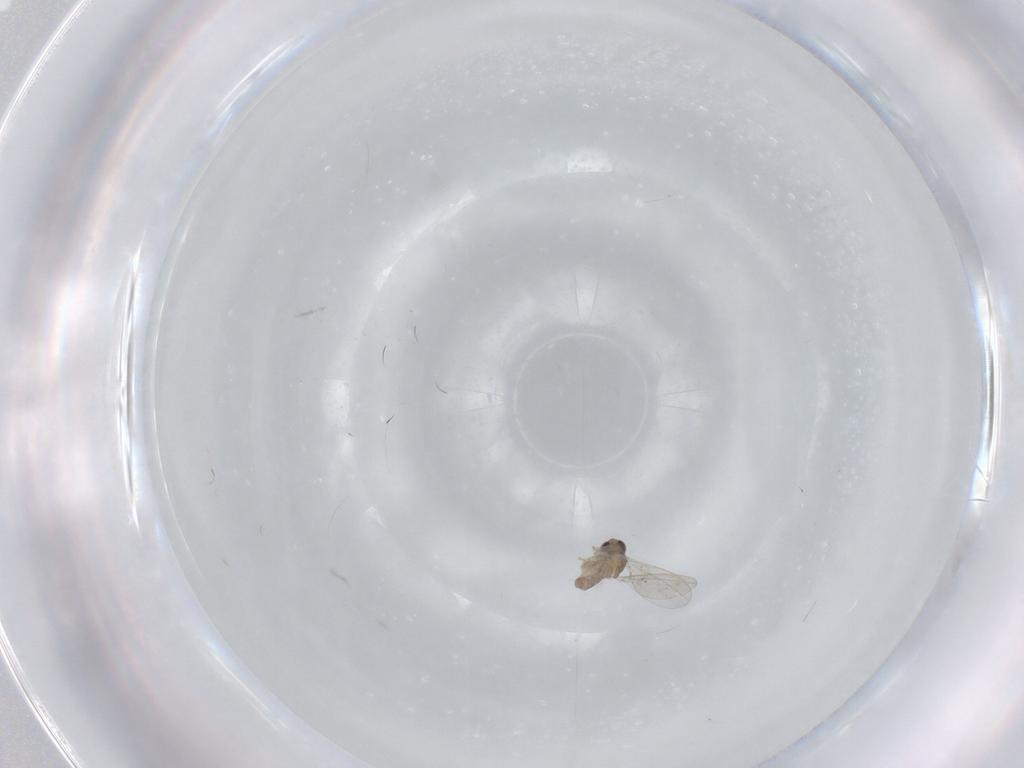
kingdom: Animalia
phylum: Arthropoda
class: Insecta
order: Diptera
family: Cecidomyiidae
